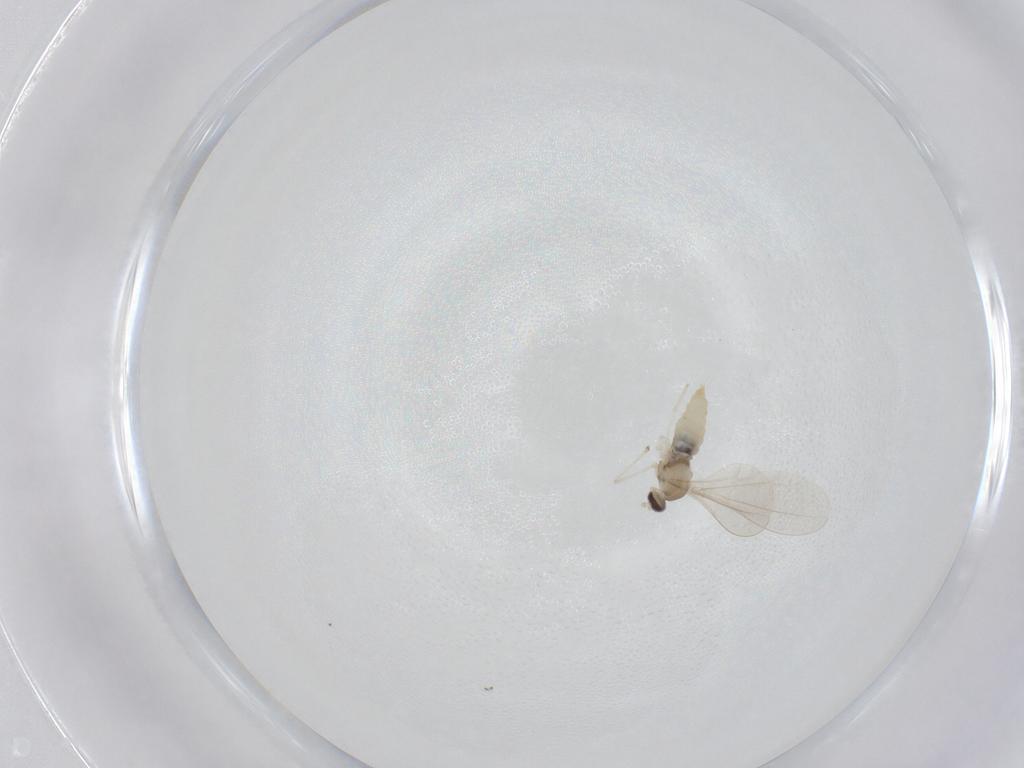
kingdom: Animalia
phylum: Arthropoda
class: Insecta
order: Diptera
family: Cecidomyiidae
